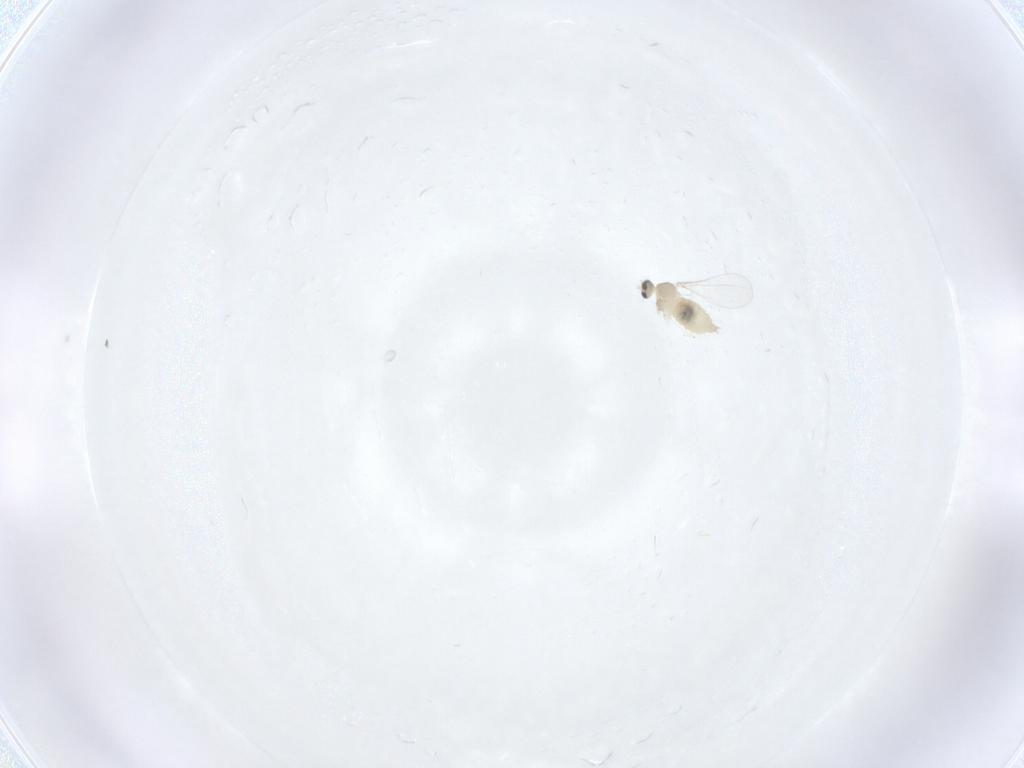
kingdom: Animalia
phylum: Arthropoda
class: Insecta
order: Diptera
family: Cecidomyiidae
